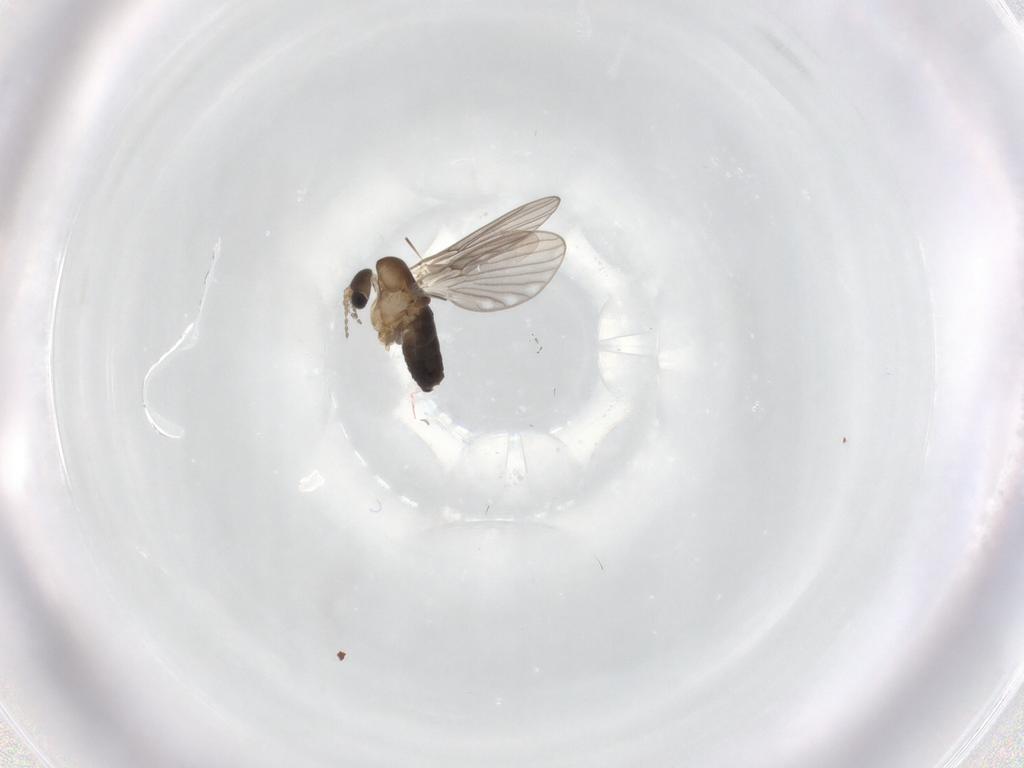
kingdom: Animalia
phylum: Arthropoda
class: Insecta
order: Diptera
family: Psychodidae
